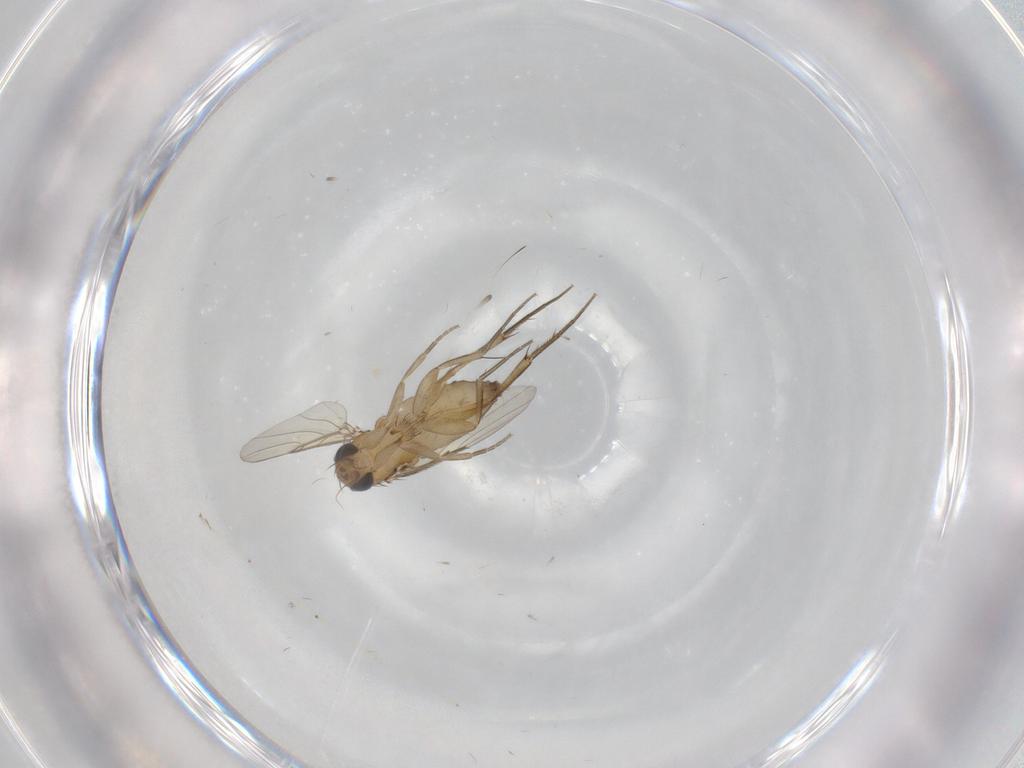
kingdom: Animalia
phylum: Arthropoda
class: Insecta
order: Diptera
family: Phoridae
